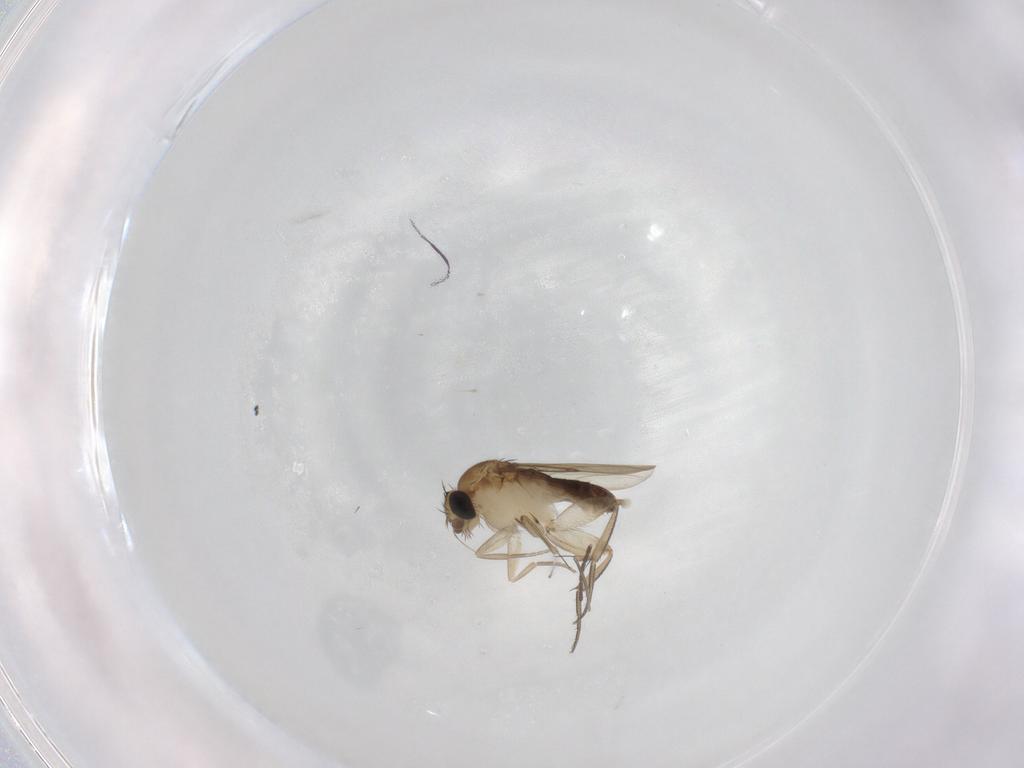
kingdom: Animalia
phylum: Arthropoda
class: Insecta
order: Diptera
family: Phoridae
